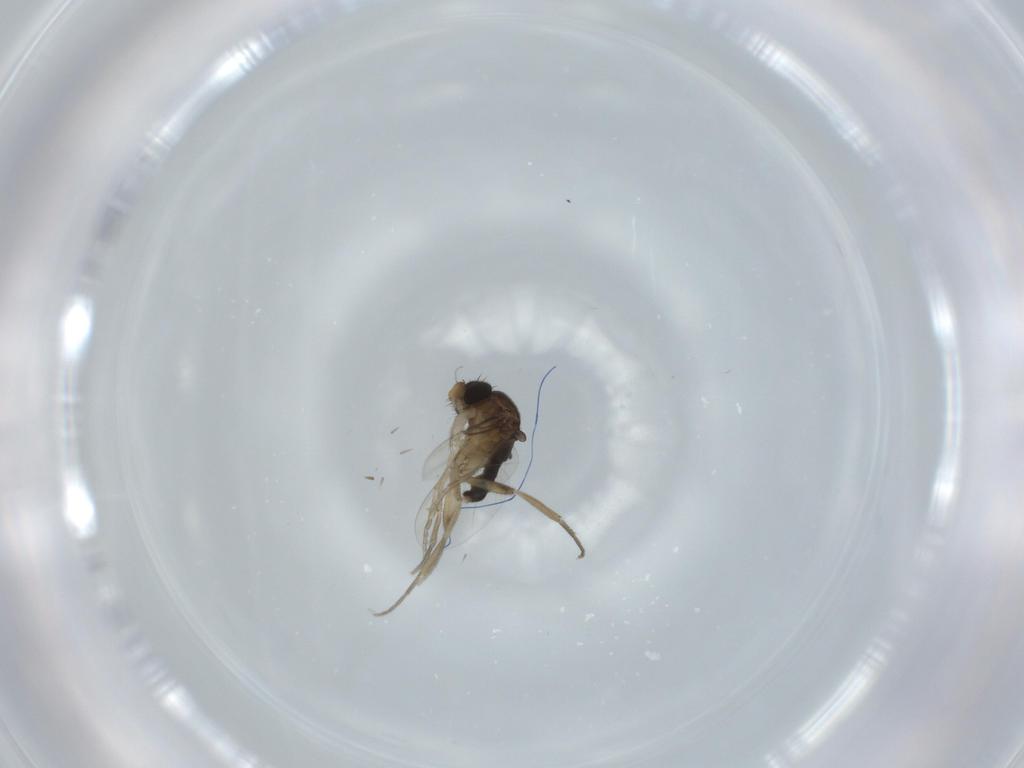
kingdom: Animalia
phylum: Arthropoda
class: Insecta
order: Diptera
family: Phoridae
